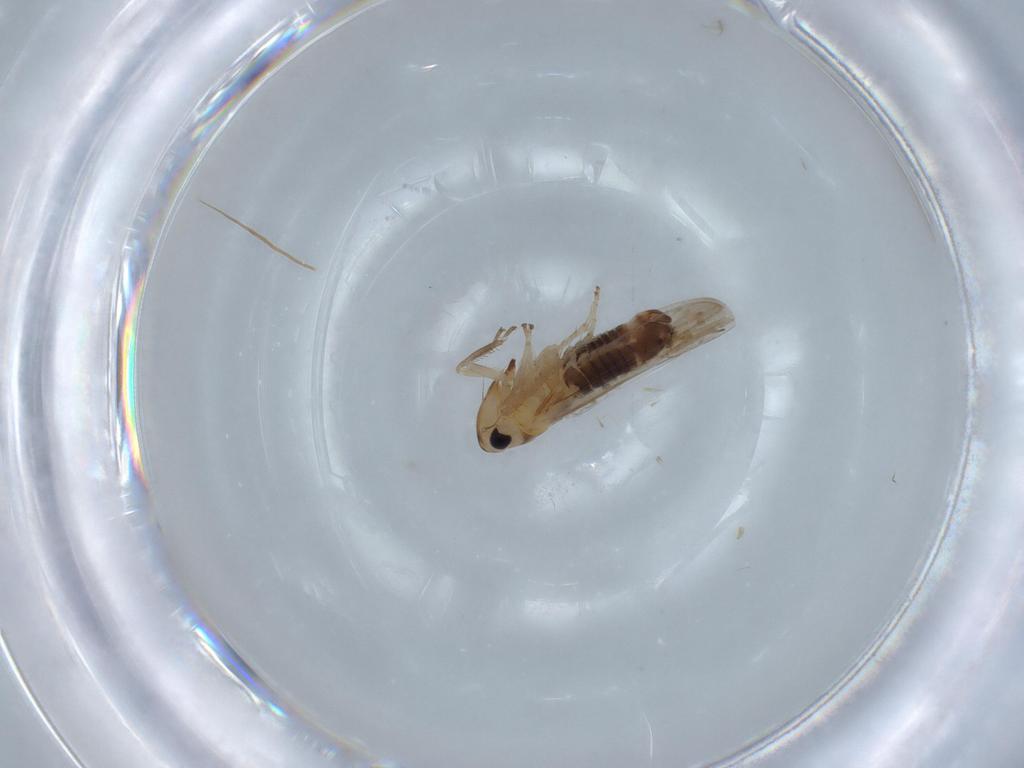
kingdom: Animalia
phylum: Arthropoda
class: Insecta
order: Hemiptera
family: Cicadellidae
